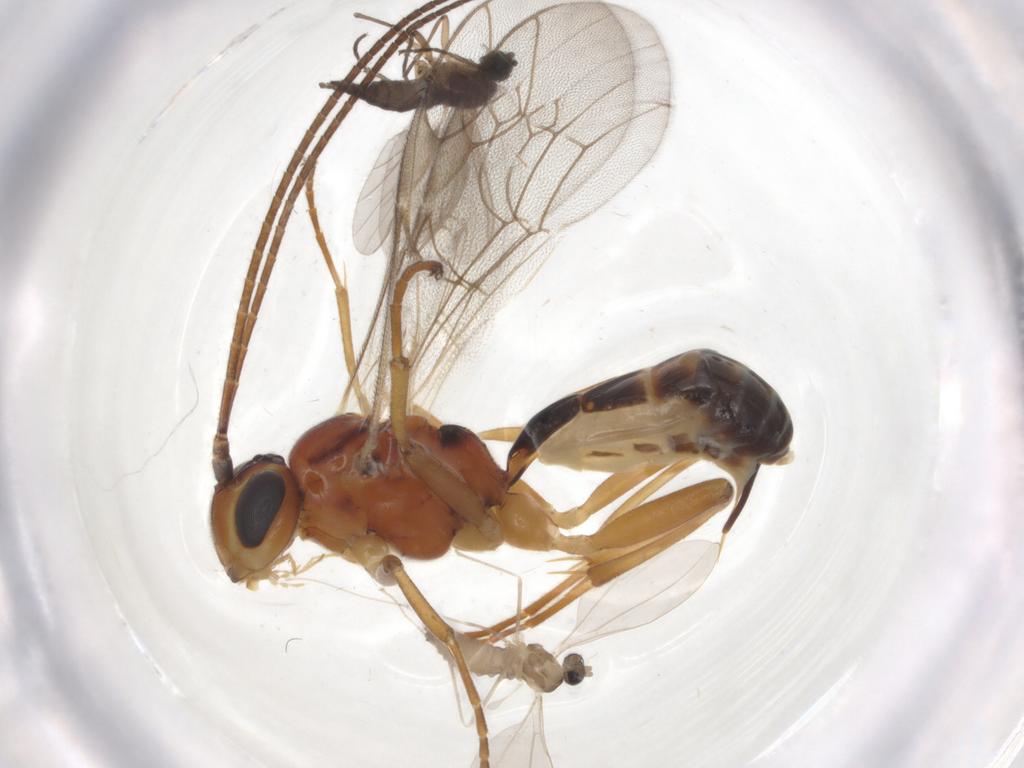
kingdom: Animalia
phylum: Arthropoda
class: Insecta
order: Hymenoptera
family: Ichneumonidae
